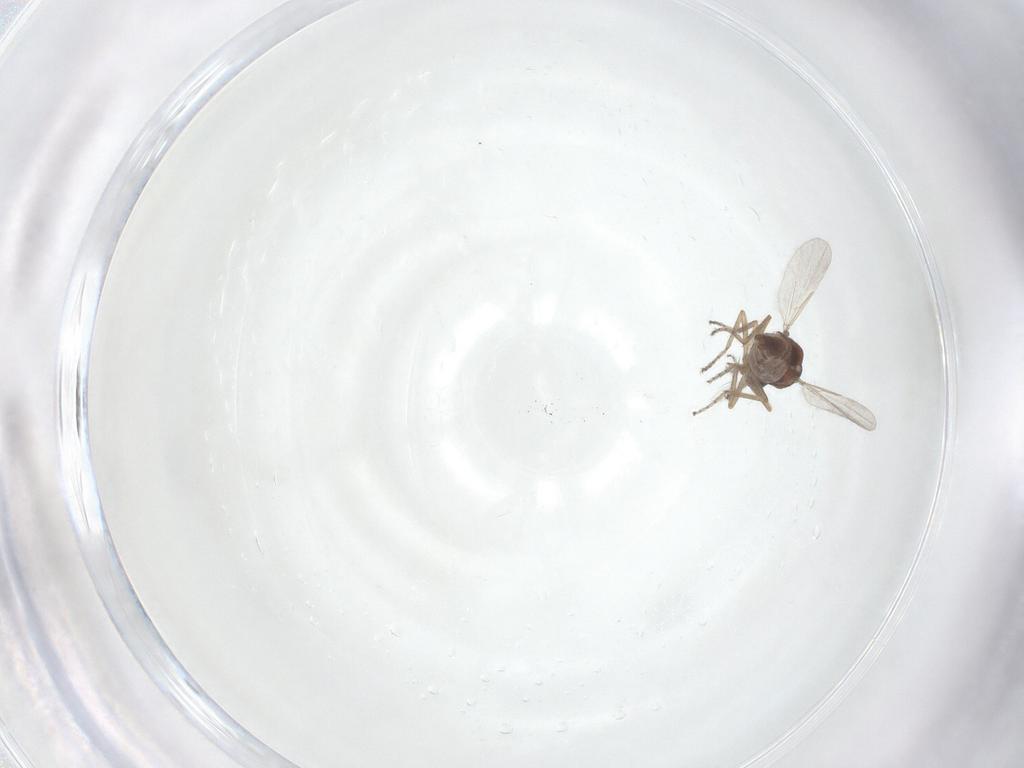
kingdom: Animalia
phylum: Arthropoda
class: Insecta
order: Diptera
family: Ceratopogonidae
